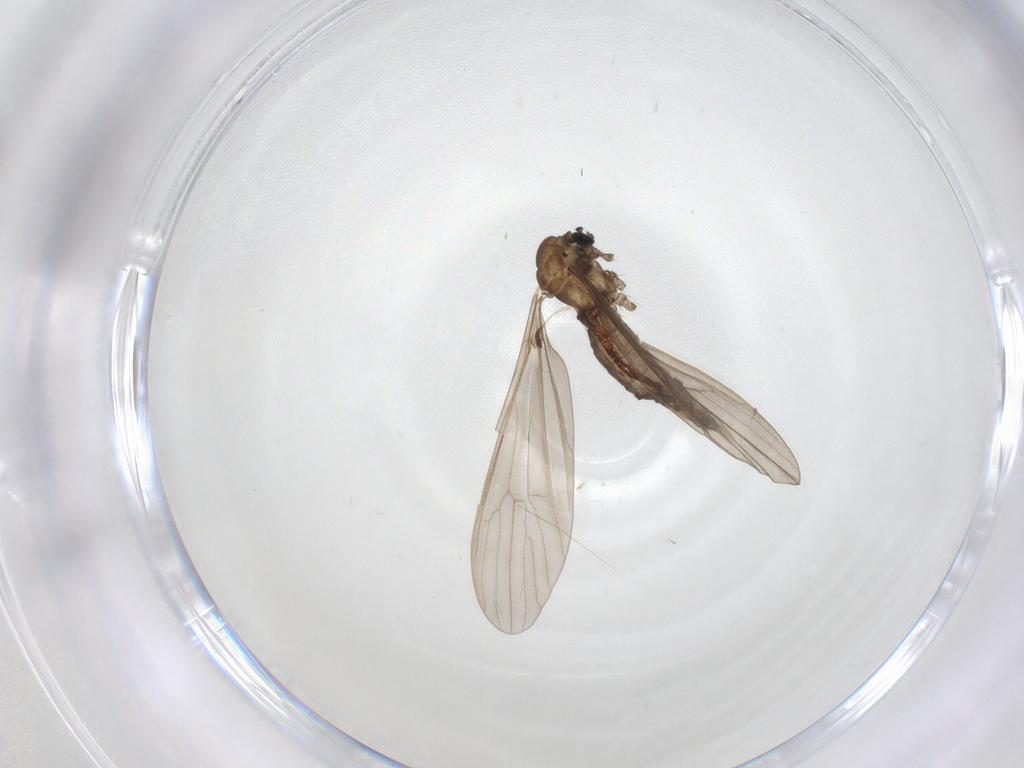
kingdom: Animalia
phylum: Arthropoda
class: Insecta
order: Diptera
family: Limoniidae
